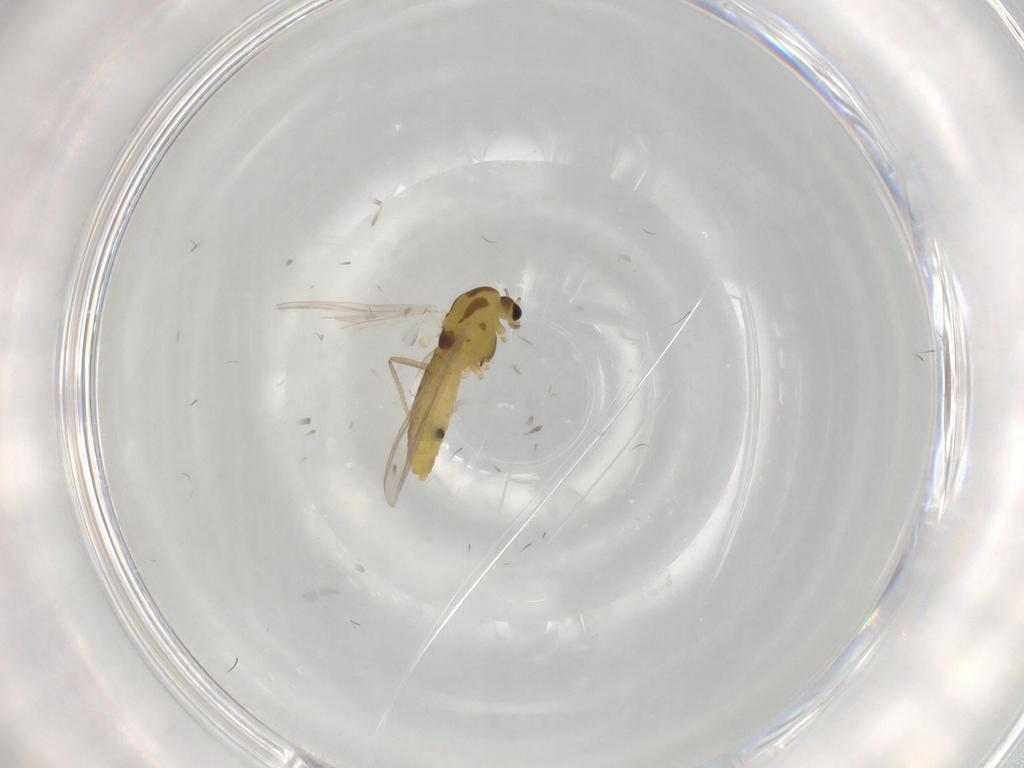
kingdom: Animalia
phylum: Arthropoda
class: Insecta
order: Diptera
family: Chironomidae
